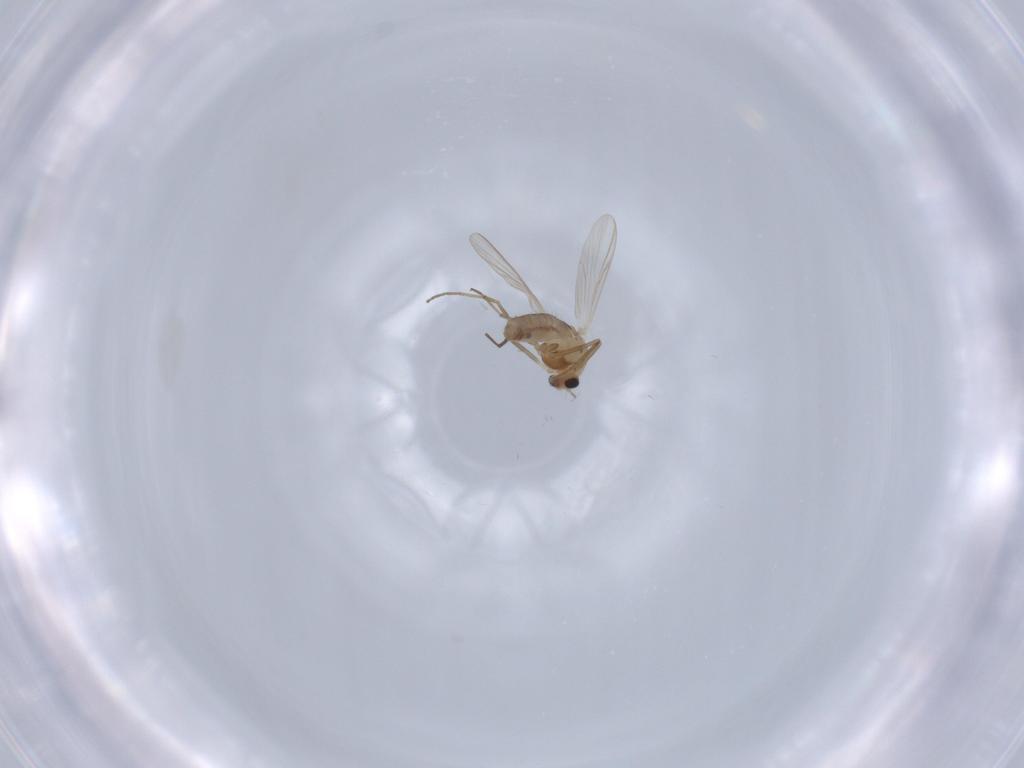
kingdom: Animalia
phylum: Arthropoda
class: Insecta
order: Diptera
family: Chironomidae
